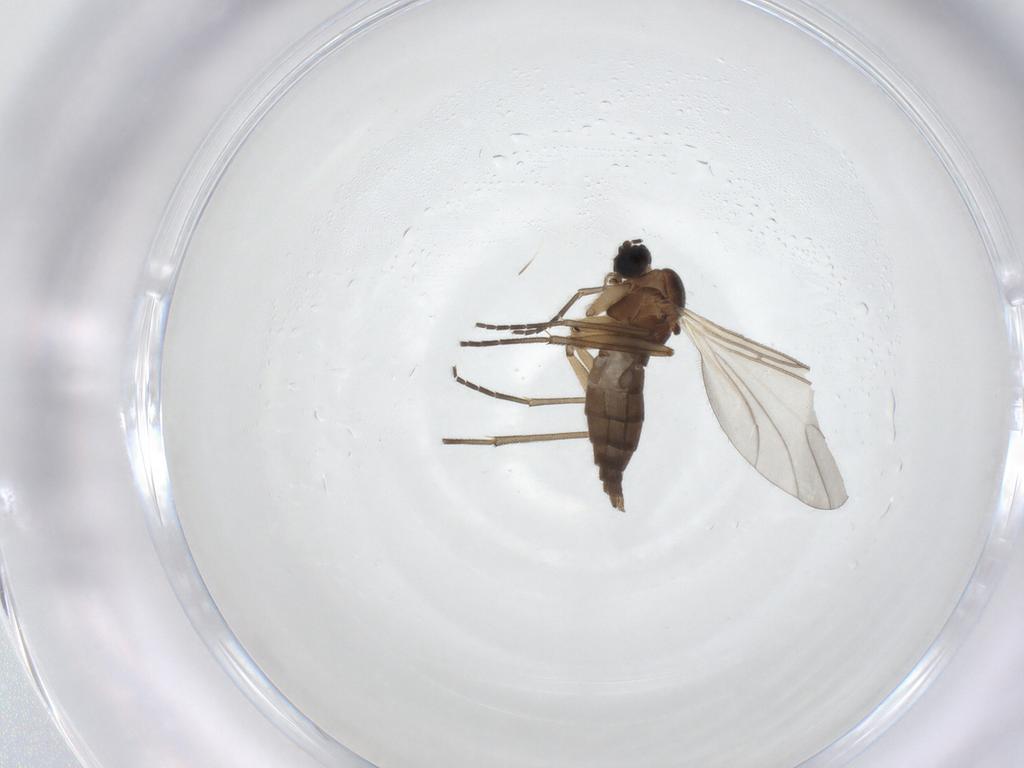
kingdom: Animalia
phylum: Arthropoda
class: Insecta
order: Diptera
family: Sciaridae
